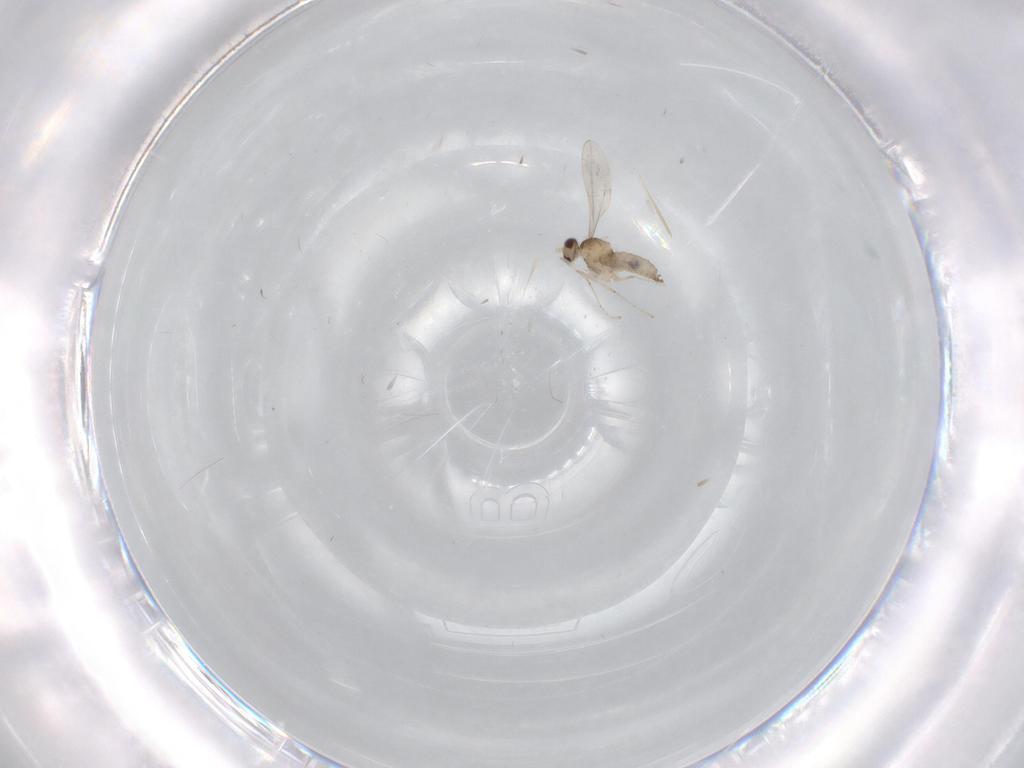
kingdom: Animalia
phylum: Arthropoda
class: Insecta
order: Diptera
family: Cecidomyiidae
